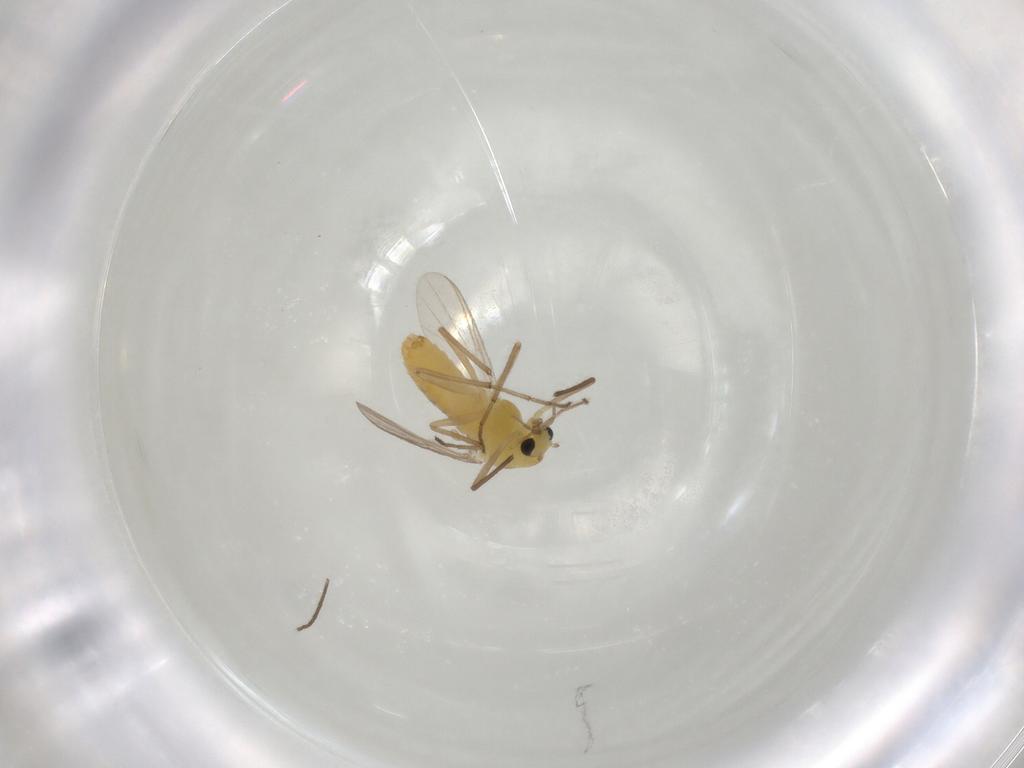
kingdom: Animalia
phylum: Arthropoda
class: Insecta
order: Diptera
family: Chironomidae
